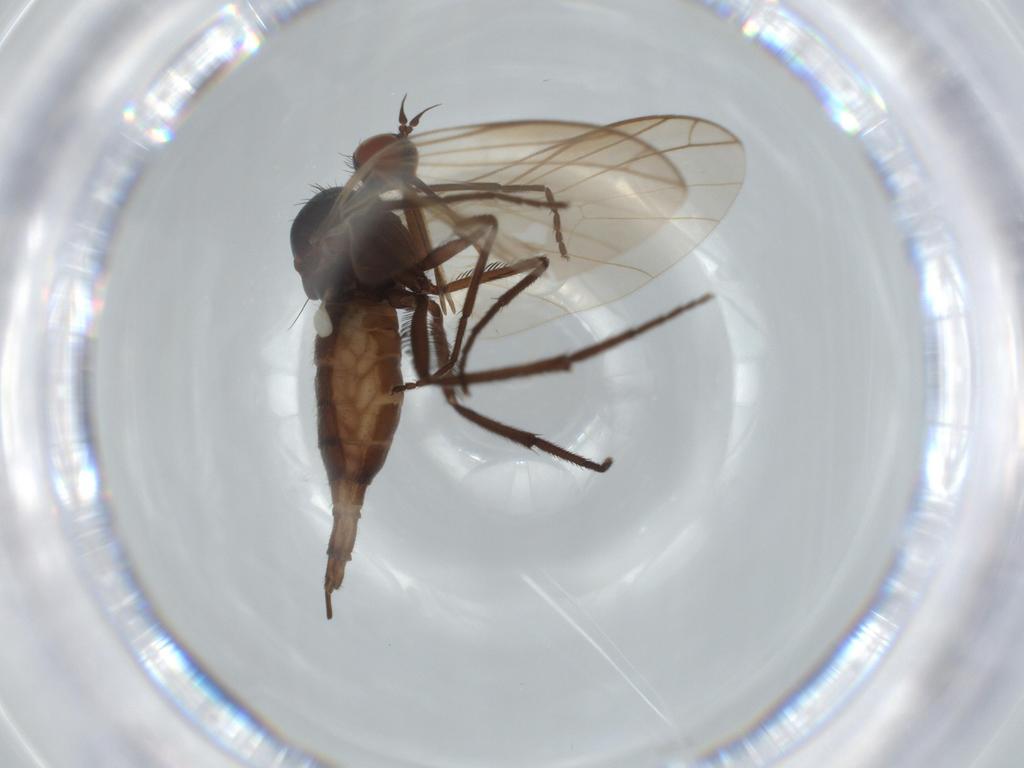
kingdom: Animalia
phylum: Arthropoda
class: Insecta
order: Diptera
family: Empididae
